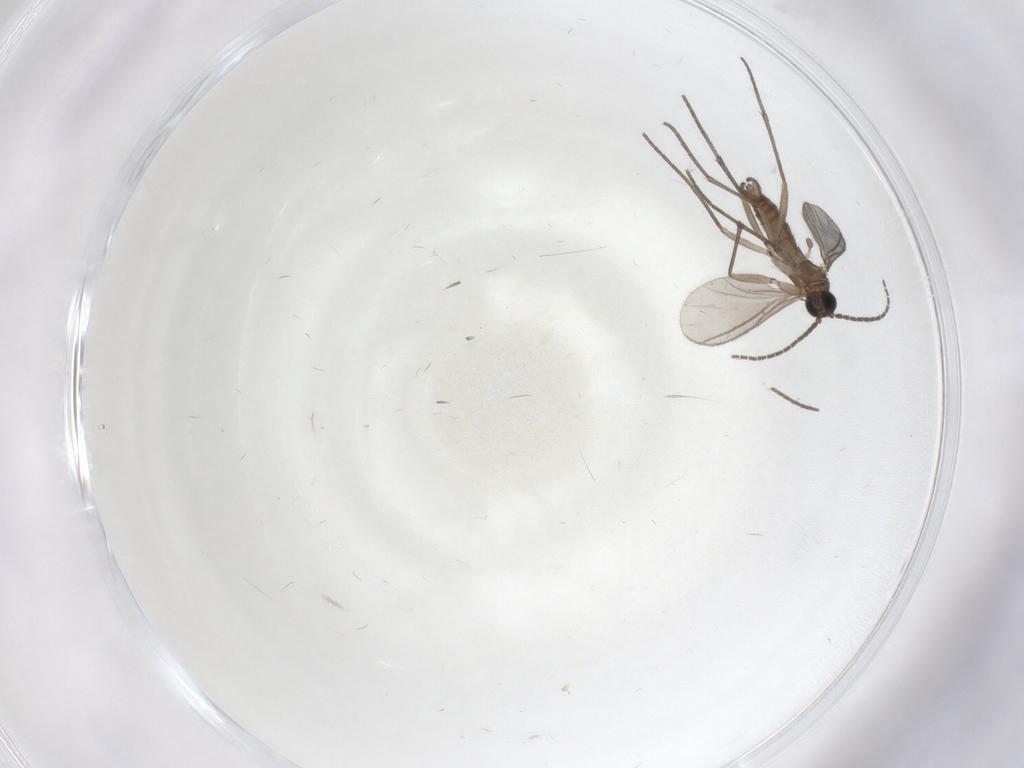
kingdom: Animalia
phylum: Arthropoda
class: Insecta
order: Diptera
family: Sciaridae
